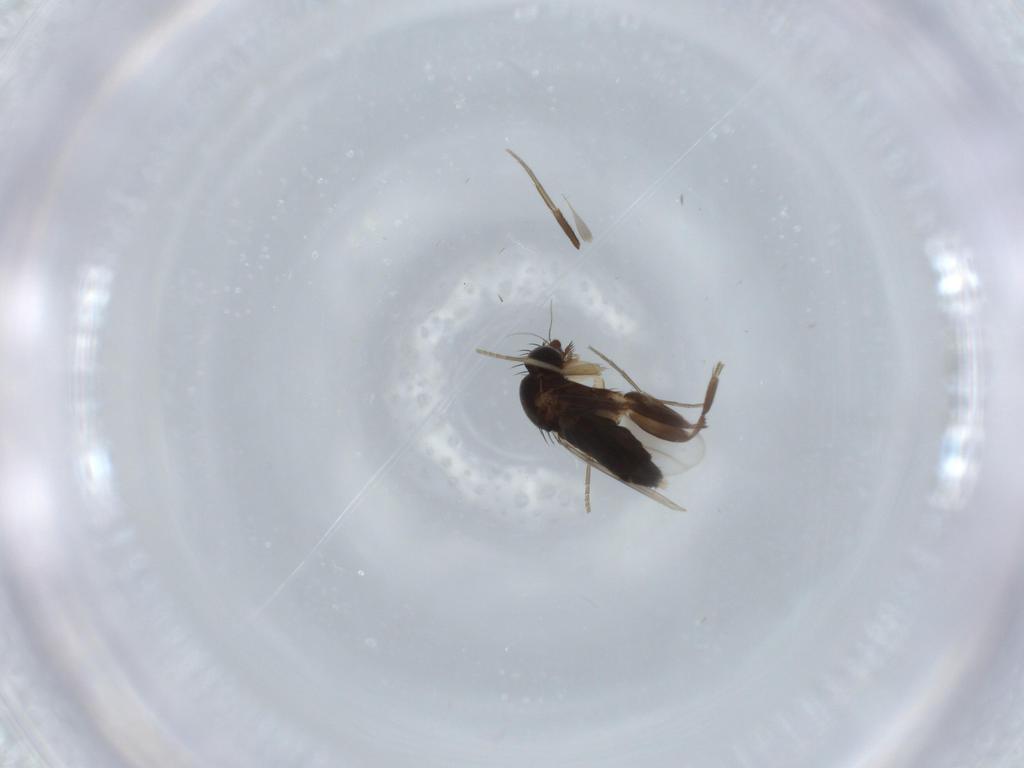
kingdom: Animalia
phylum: Arthropoda
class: Insecta
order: Diptera
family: Phoridae
